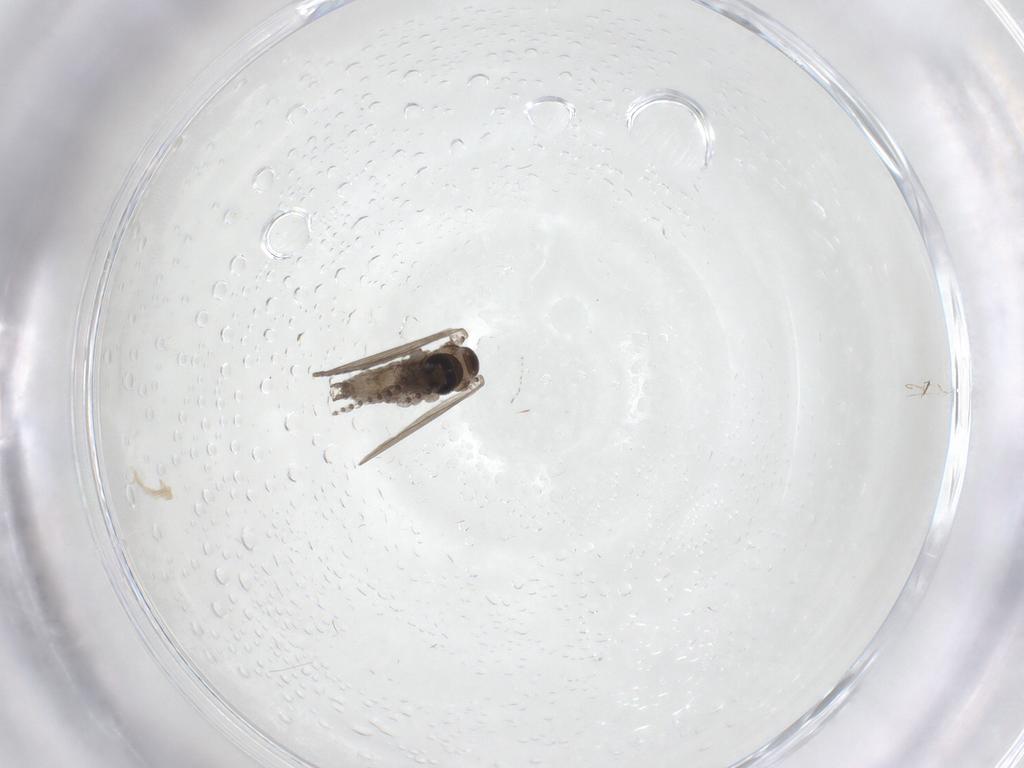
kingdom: Animalia
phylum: Arthropoda
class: Insecta
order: Diptera
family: Psychodidae
